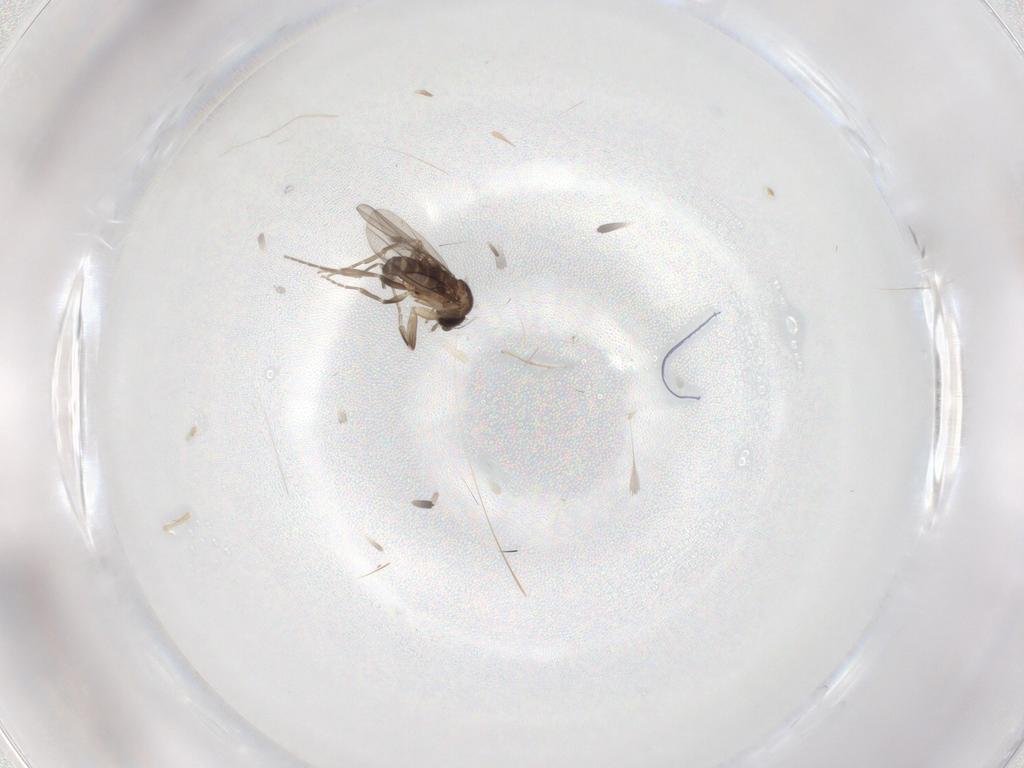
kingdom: Animalia
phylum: Arthropoda
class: Insecta
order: Diptera
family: Phoridae
